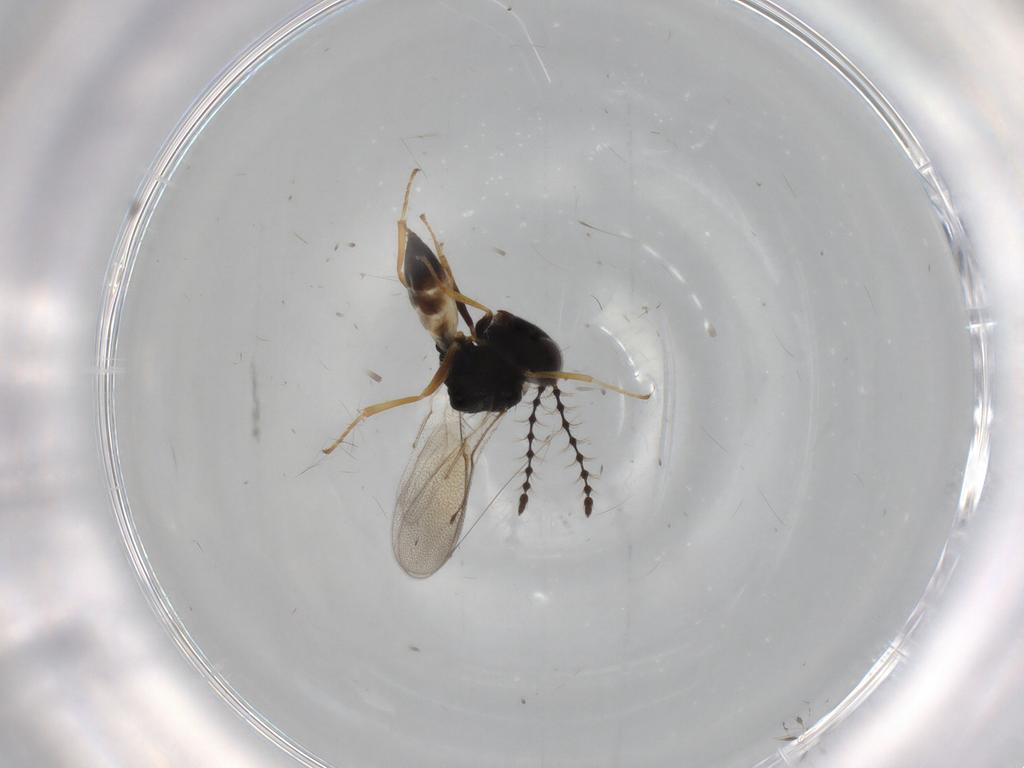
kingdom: Animalia
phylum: Arthropoda
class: Insecta
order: Hymenoptera
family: Pteromalidae
